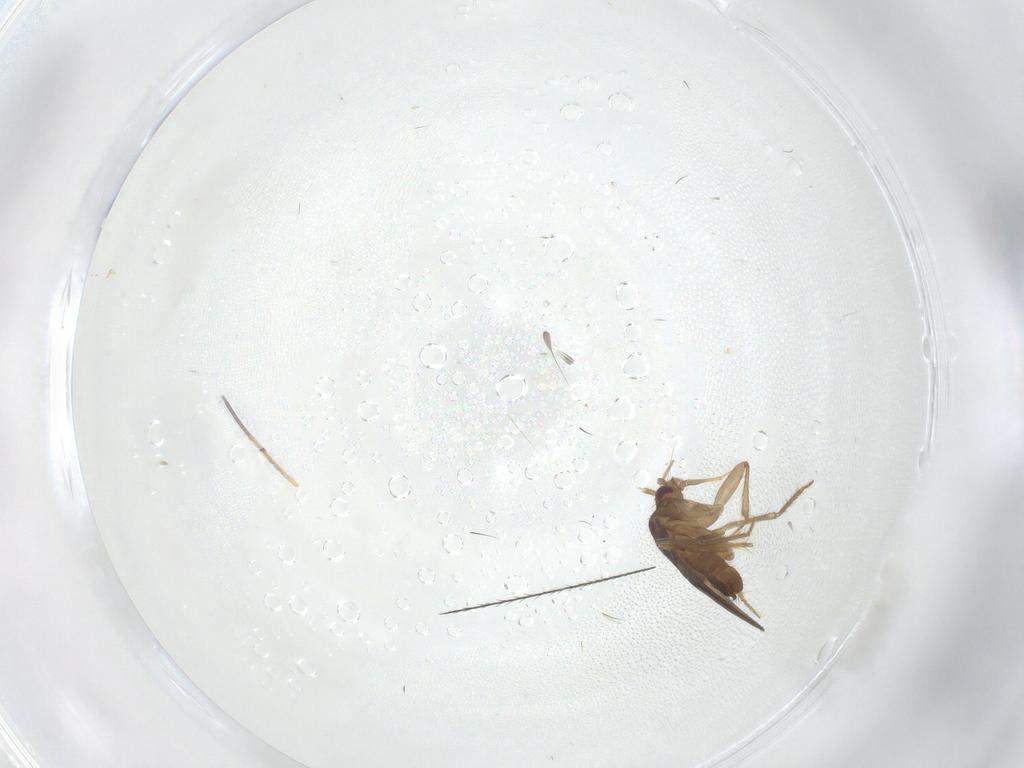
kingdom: Animalia
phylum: Arthropoda
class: Insecta
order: Hemiptera
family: Ceratocombidae
